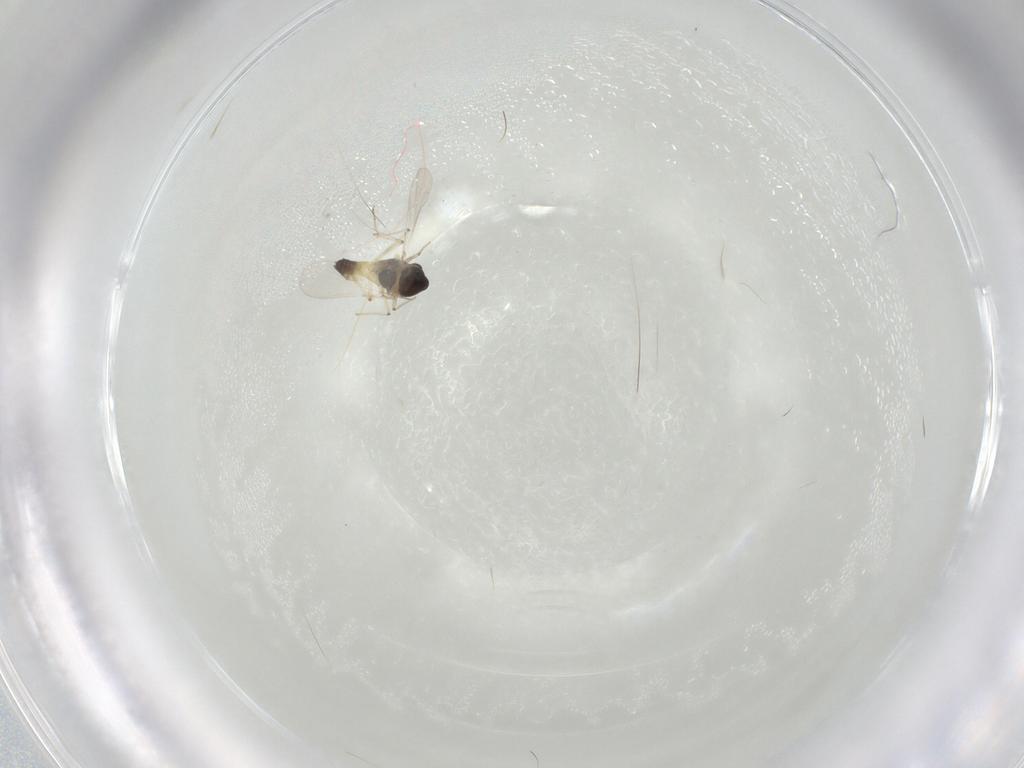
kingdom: Animalia
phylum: Arthropoda
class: Insecta
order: Diptera
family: Chironomidae
